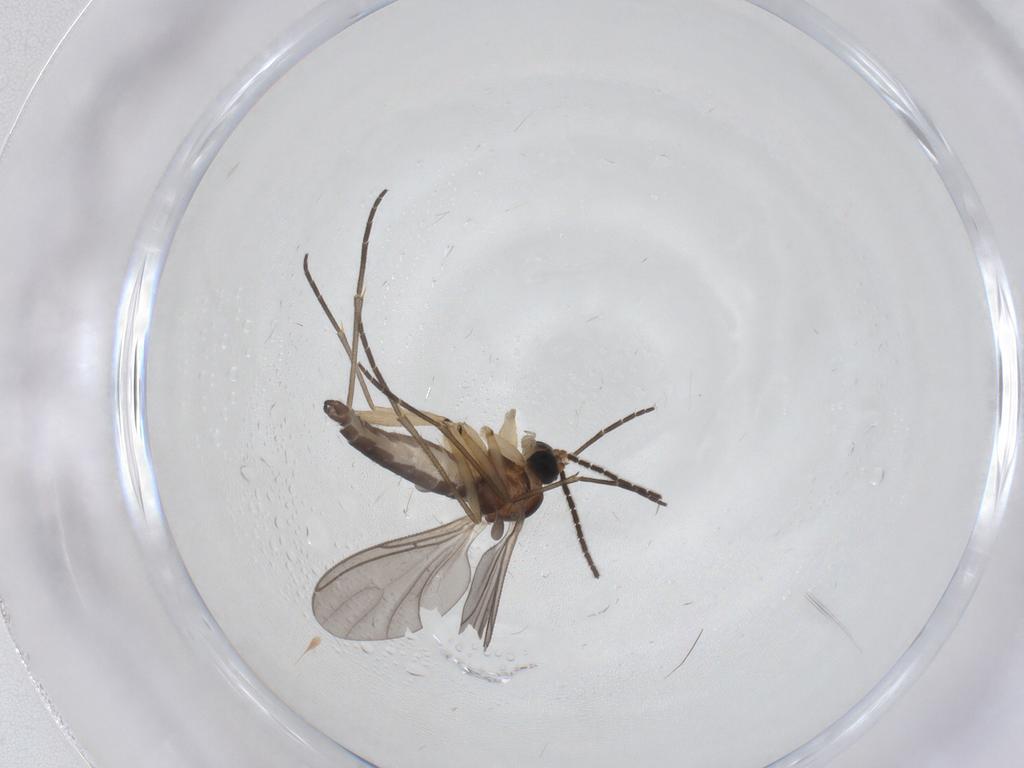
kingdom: Animalia
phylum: Arthropoda
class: Insecta
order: Diptera
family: Sciaridae
